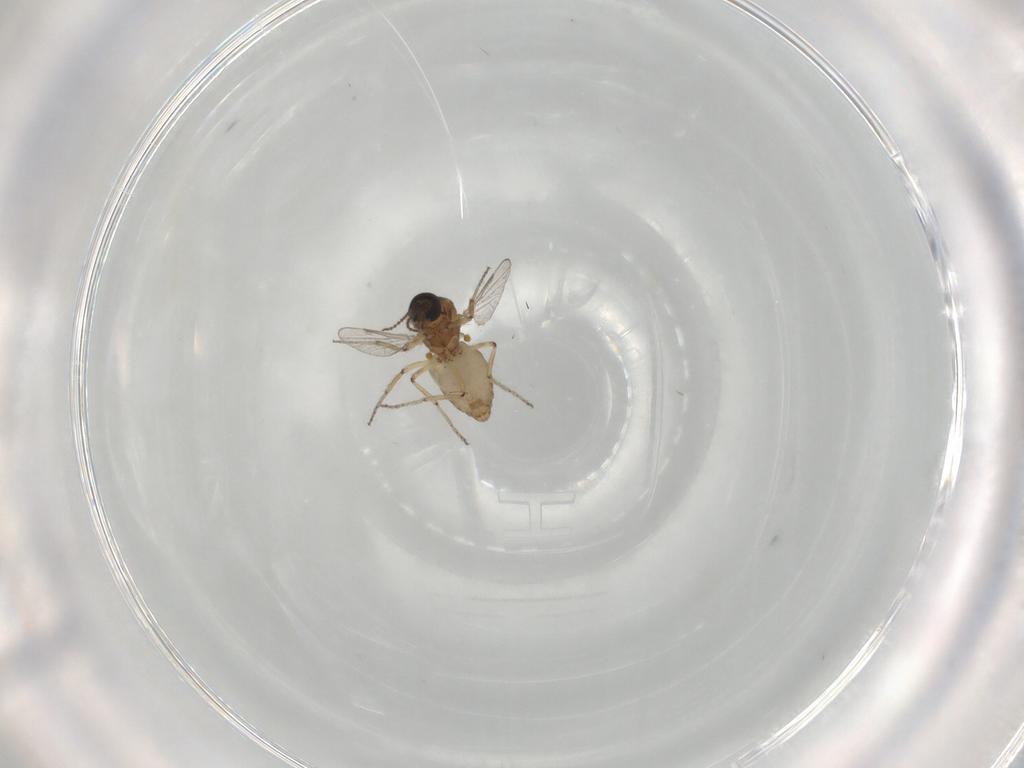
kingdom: Animalia
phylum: Arthropoda
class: Insecta
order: Diptera
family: Ceratopogonidae
